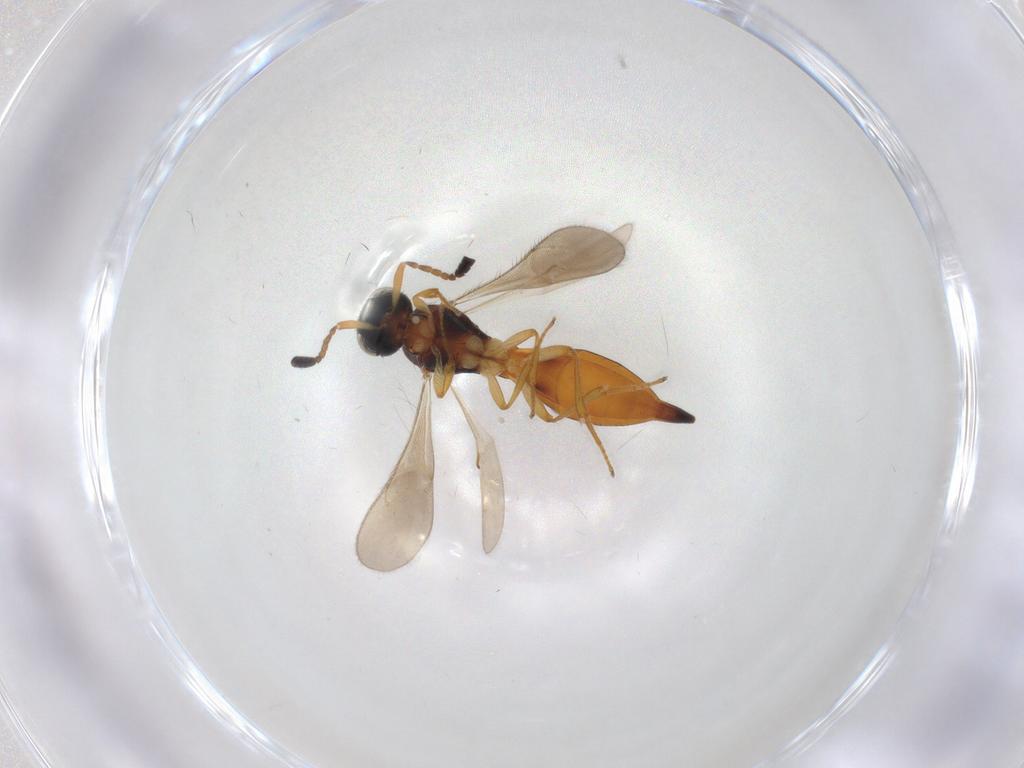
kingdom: Animalia
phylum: Arthropoda
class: Insecta
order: Hymenoptera
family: Scelionidae
